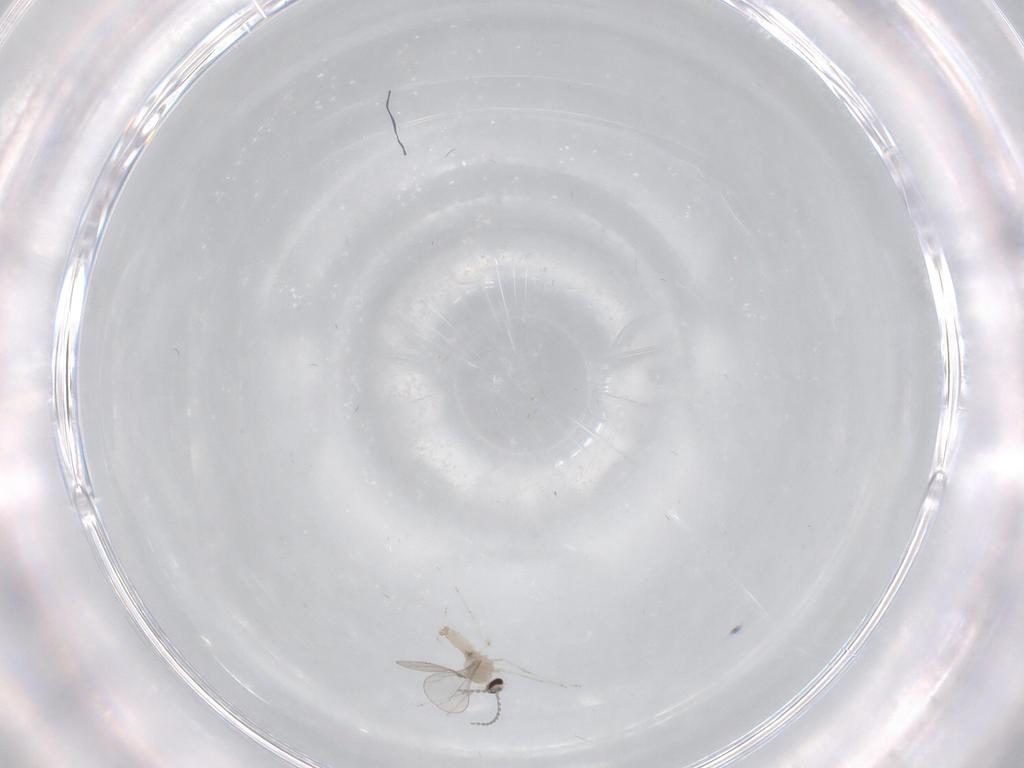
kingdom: Animalia
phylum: Arthropoda
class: Insecta
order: Diptera
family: Cecidomyiidae
